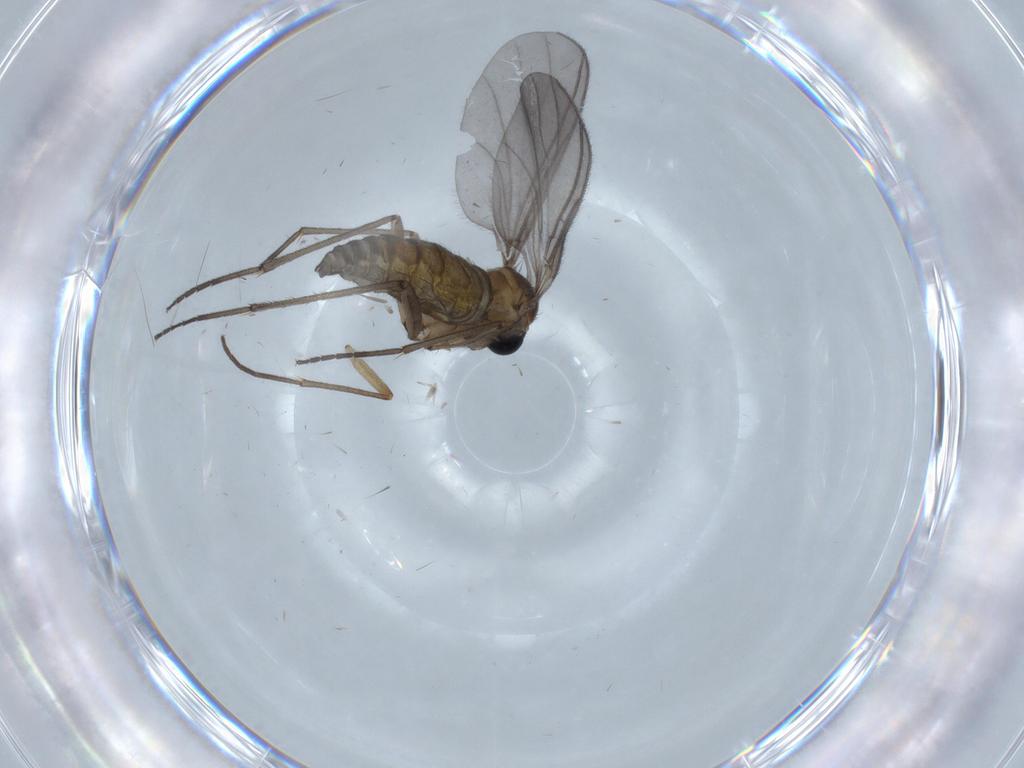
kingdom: Animalia
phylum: Arthropoda
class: Insecta
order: Diptera
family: Sciaridae
